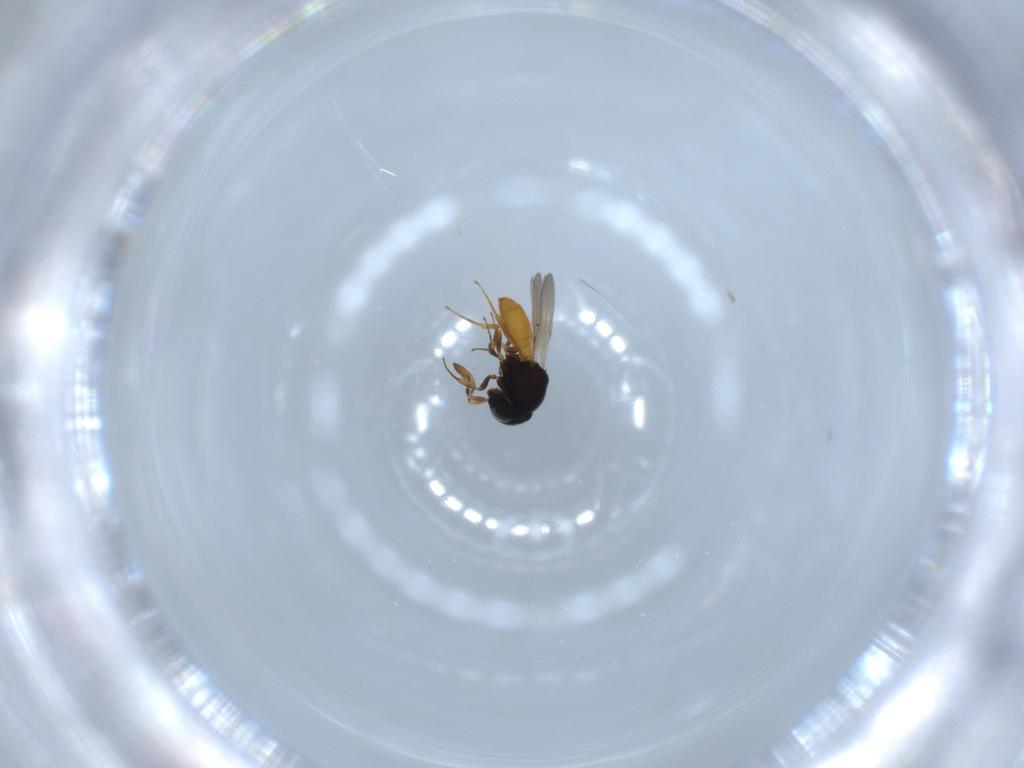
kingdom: Animalia
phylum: Arthropoda
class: Insecta
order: Hymenoptera
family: Scelionidae
